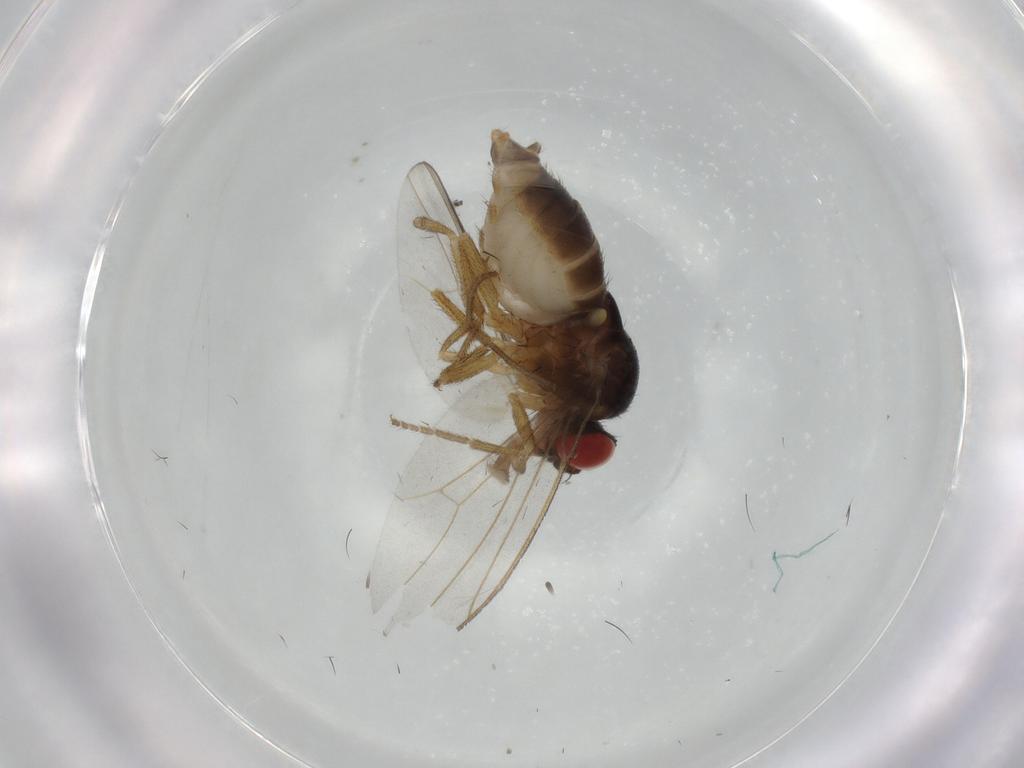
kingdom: Animalia
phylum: Arthropoda
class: Insecta
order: Diptera
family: Drosophilidae
